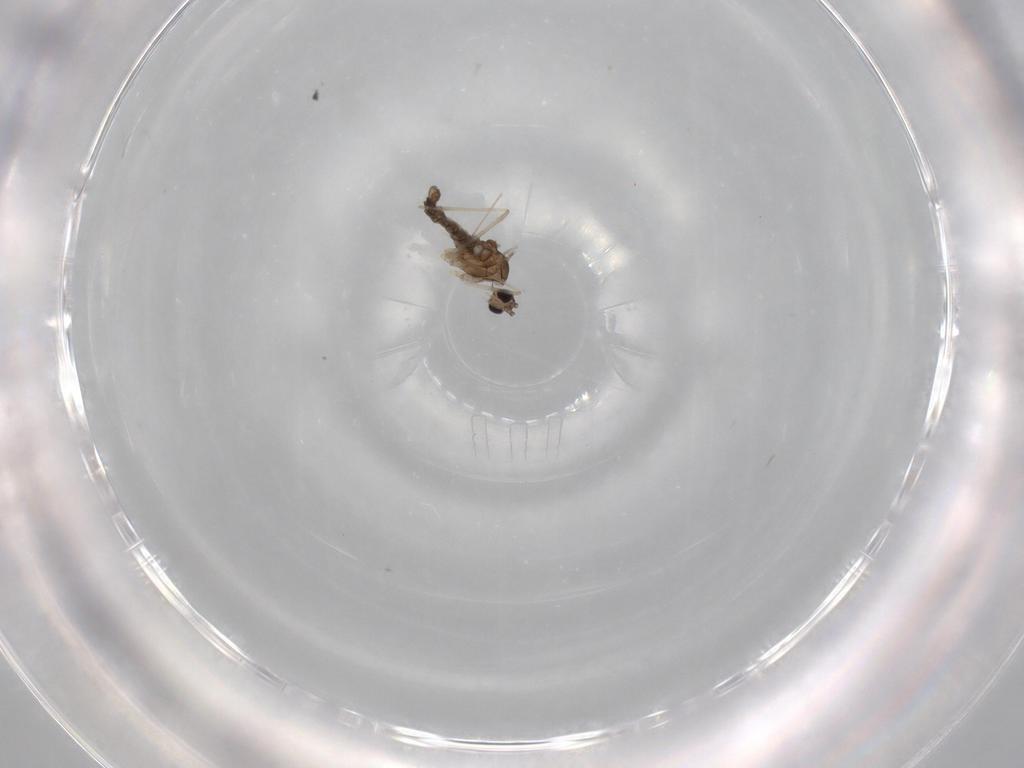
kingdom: Animalia
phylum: Arthropoda
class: Insecta
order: Diptera
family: Cecidomyiidae
